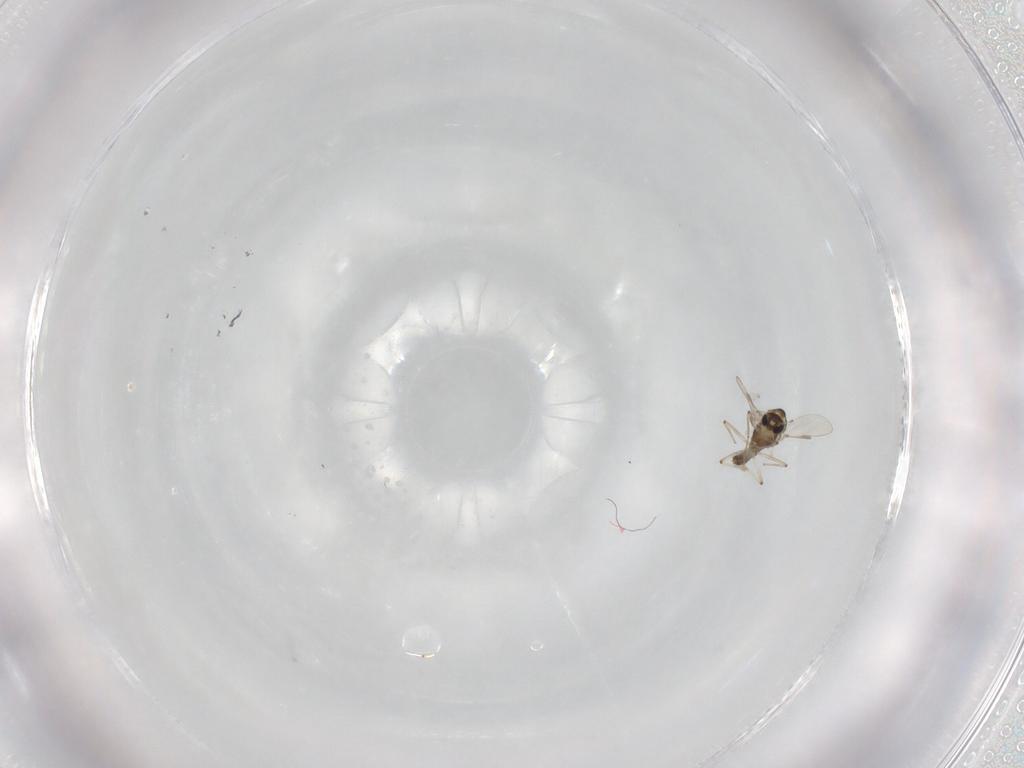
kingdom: Animalia
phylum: Arthropoda
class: Insecta
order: Diptera
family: Chironomidae
